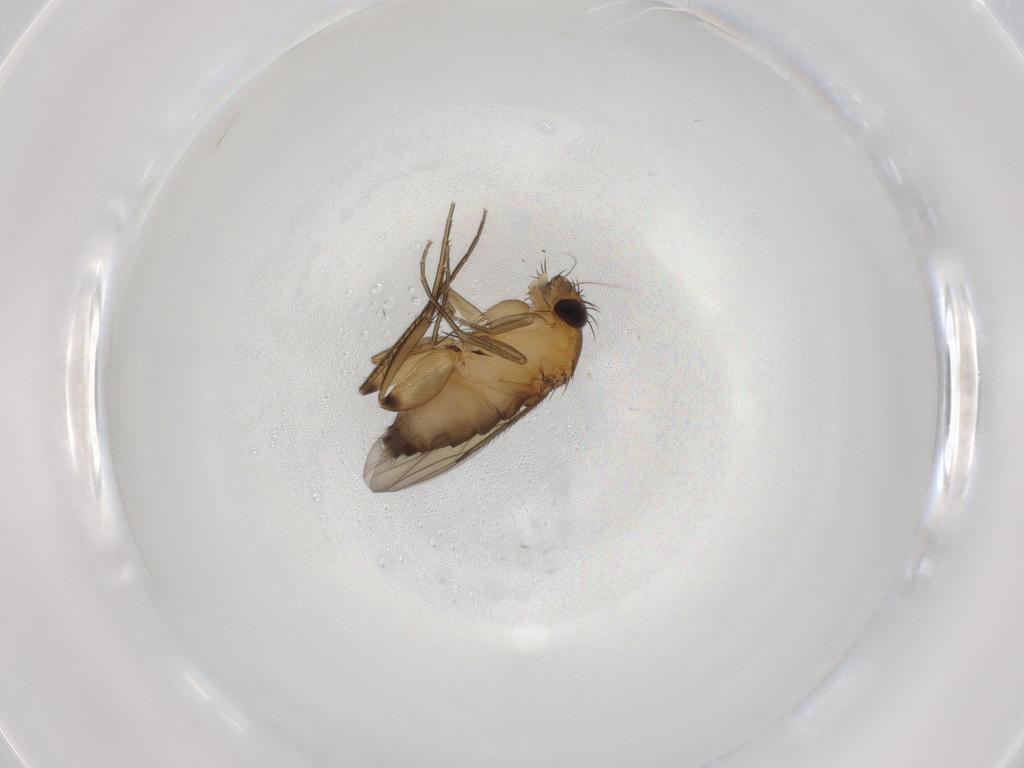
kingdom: Animalia
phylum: Arthropoda
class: Insecta
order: Diptera
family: Phoridae
